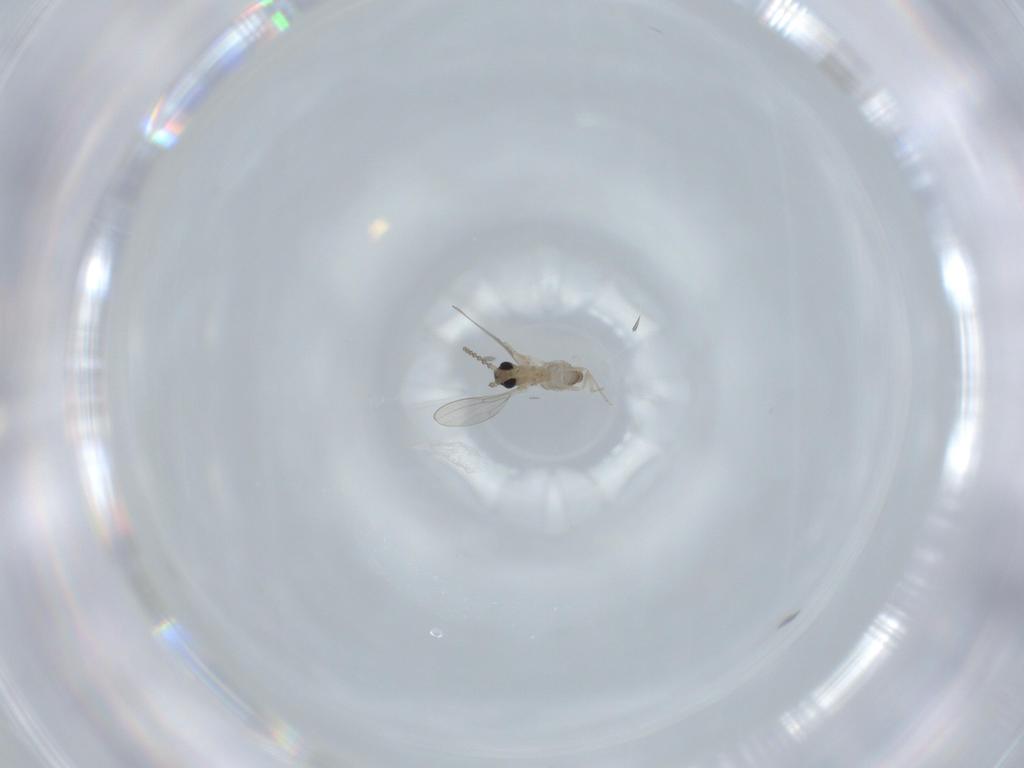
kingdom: Animalia
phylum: Arthropoda
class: Insecta
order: Diptera
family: Cecidomyiidae
